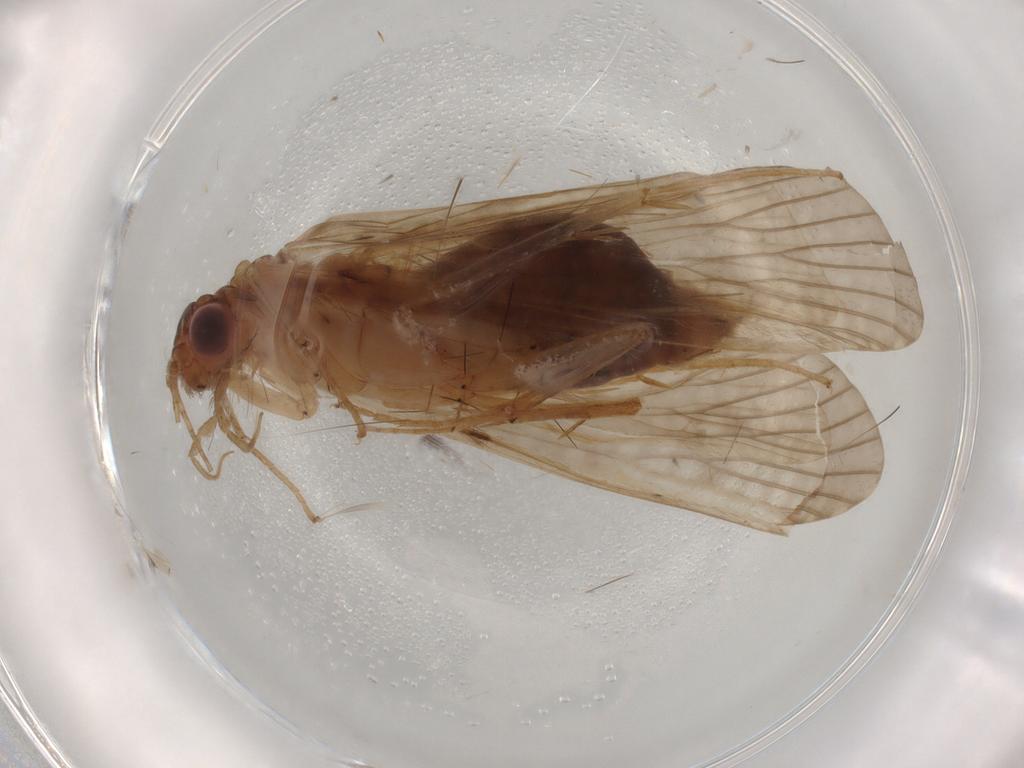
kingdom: Animalia
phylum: Arthropoda
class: Insecta
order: Trichoptera
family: Hydropsychidae
